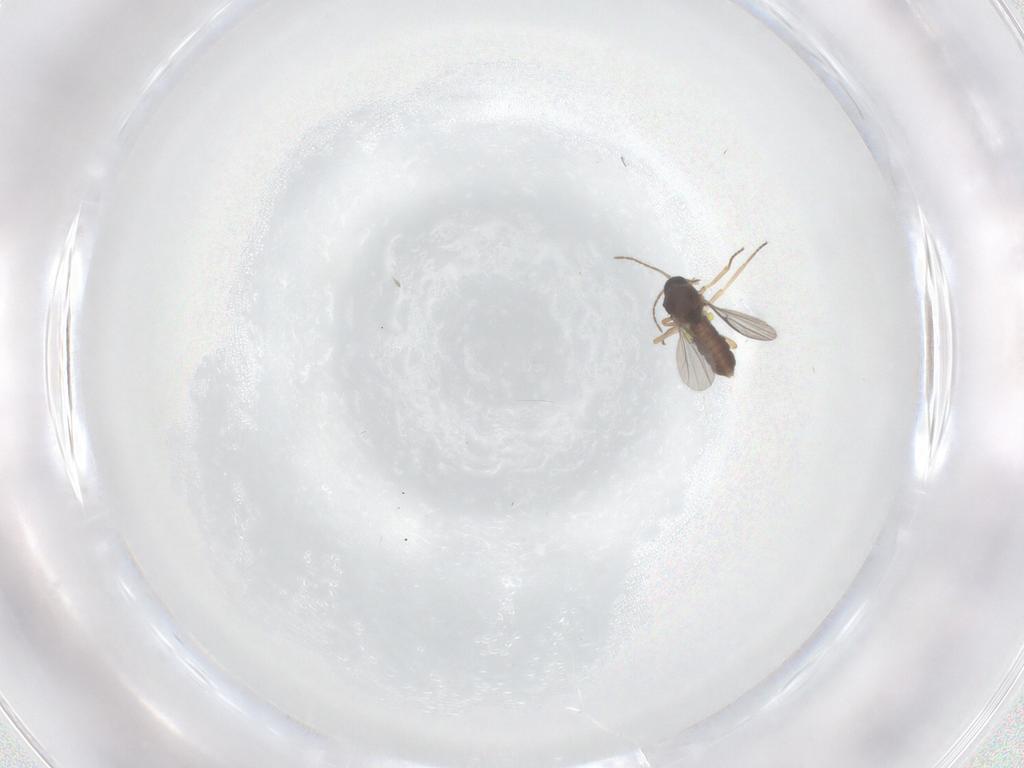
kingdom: Animalia
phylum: Arthropoda
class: Insecta
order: Diptera
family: Ceratopogonidae
